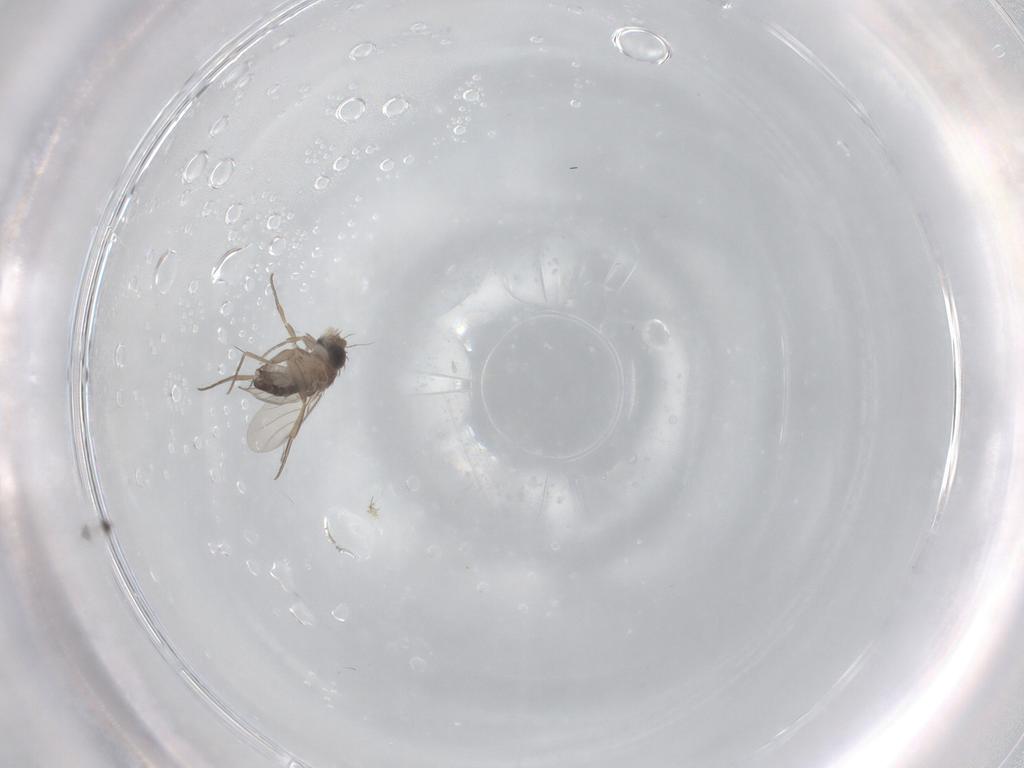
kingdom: Animalia
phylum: Arthropoda
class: Insecta
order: Diptera
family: Phoridae
